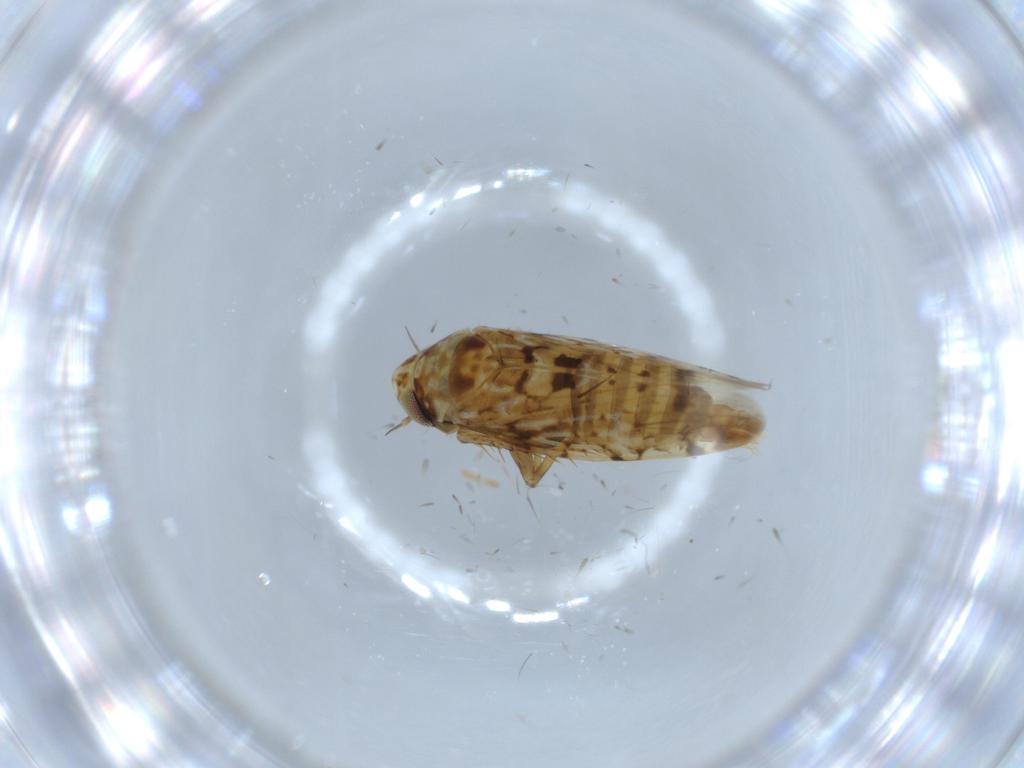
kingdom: Animalia
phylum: Arthropoda
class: Insecta
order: Hemiptera
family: Cicadellidae
